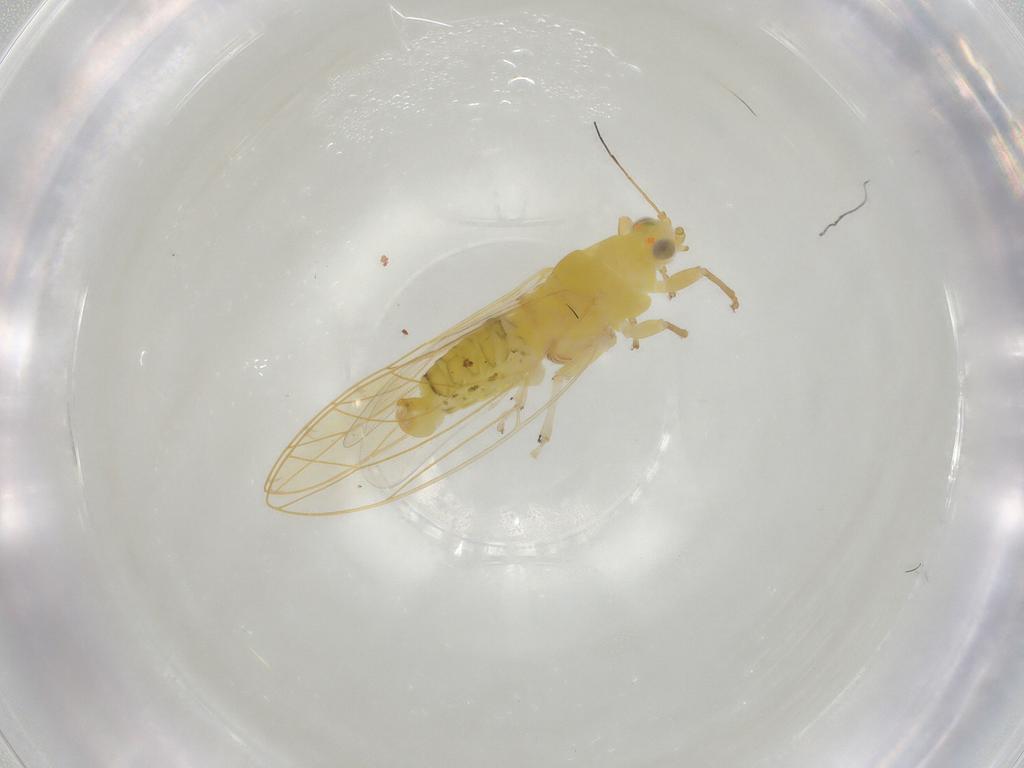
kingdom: Animalia
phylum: Arthropoda
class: Insecta
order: Hemiptera
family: Triozidae
